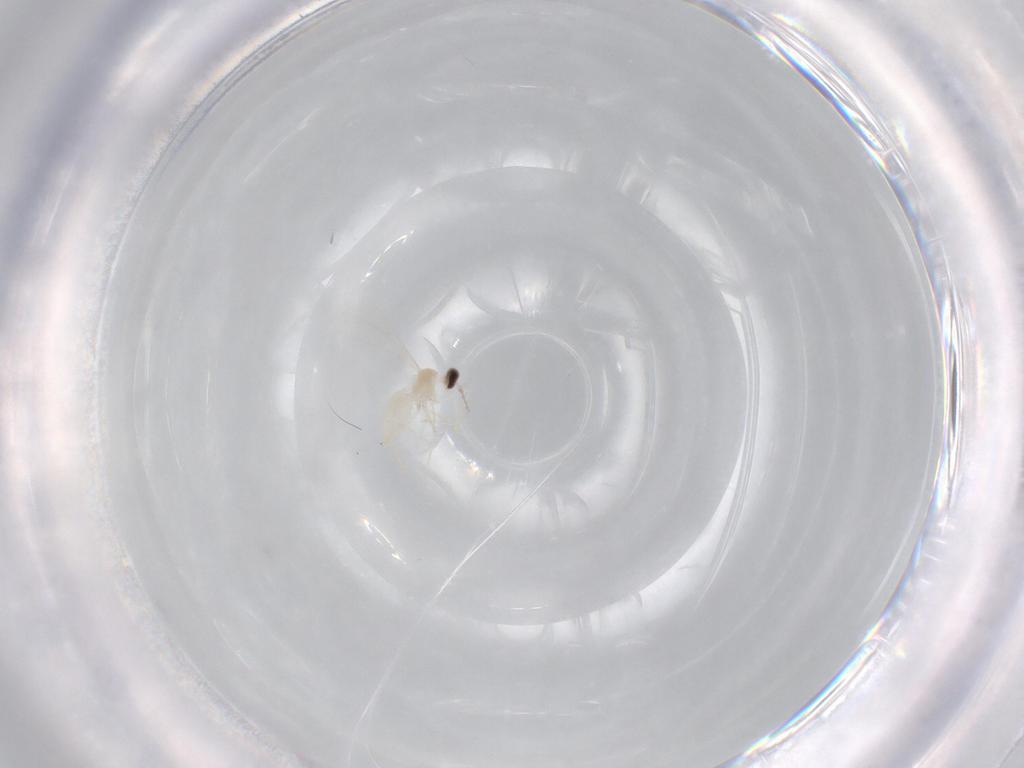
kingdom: Animalia
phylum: Arthropoda
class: Insecta
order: Diptera
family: Cecidomyiidae
